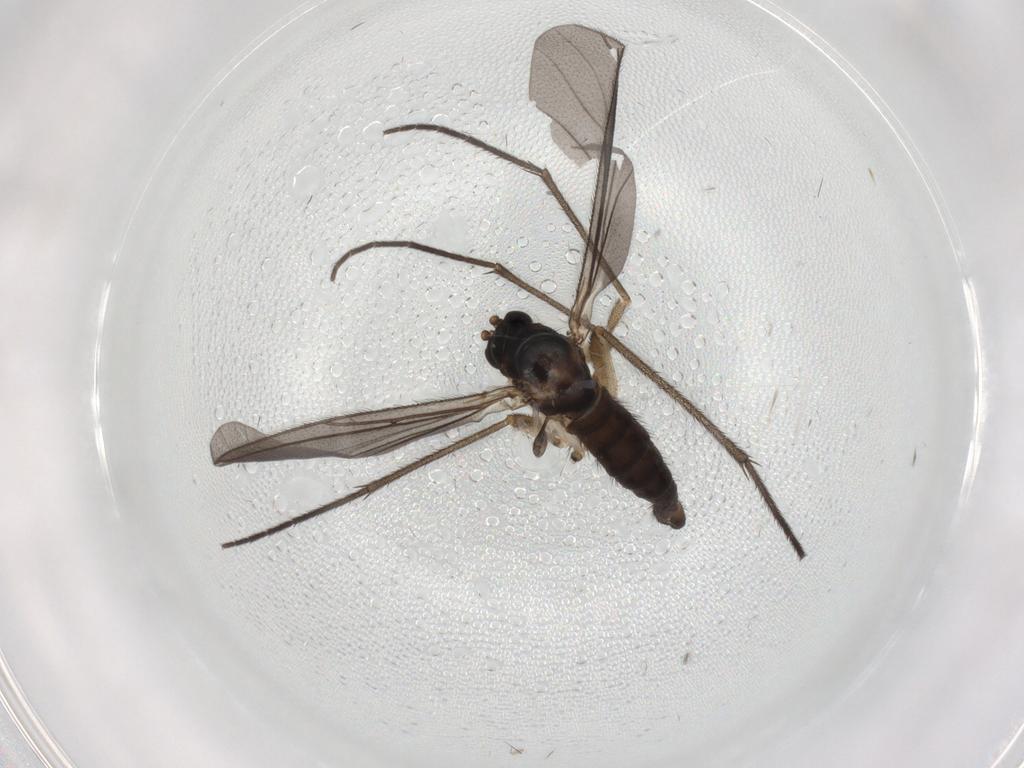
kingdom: Animalia
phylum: Arthropoda
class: Insecta
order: Diptera
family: Sciaridae
